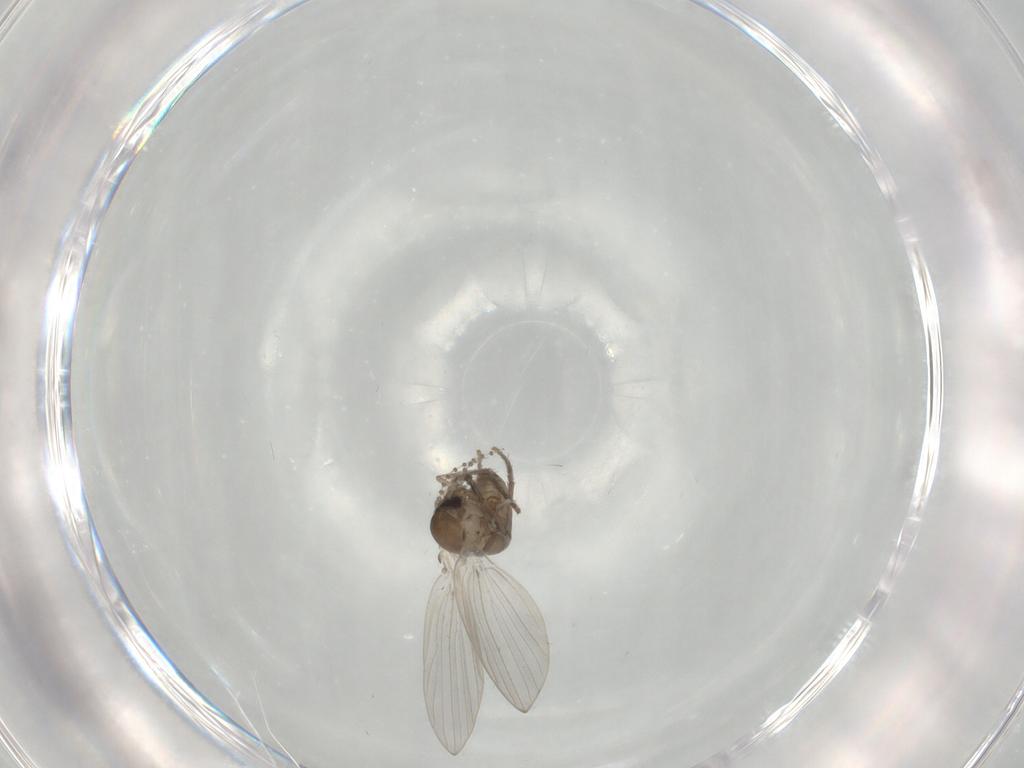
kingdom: Animalia
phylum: Arthropoda
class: Insecta
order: Diptera
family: Psychodidae
